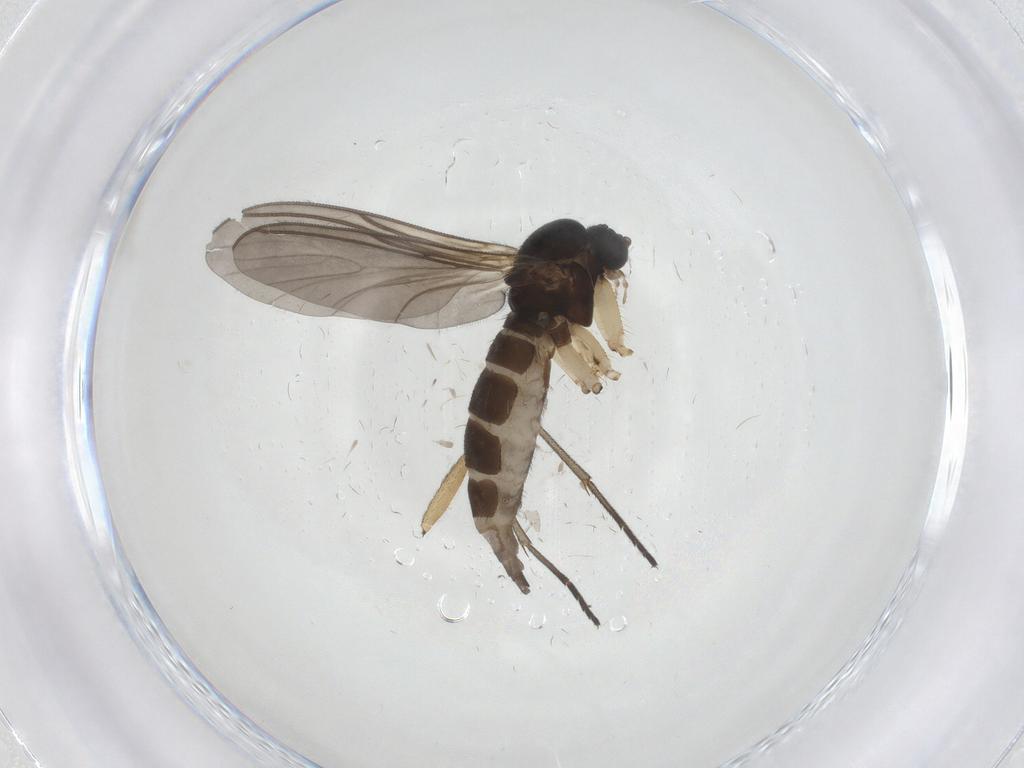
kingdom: Animalia
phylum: Arthropoda
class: Insecta
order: Diptera
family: Sciaridae
